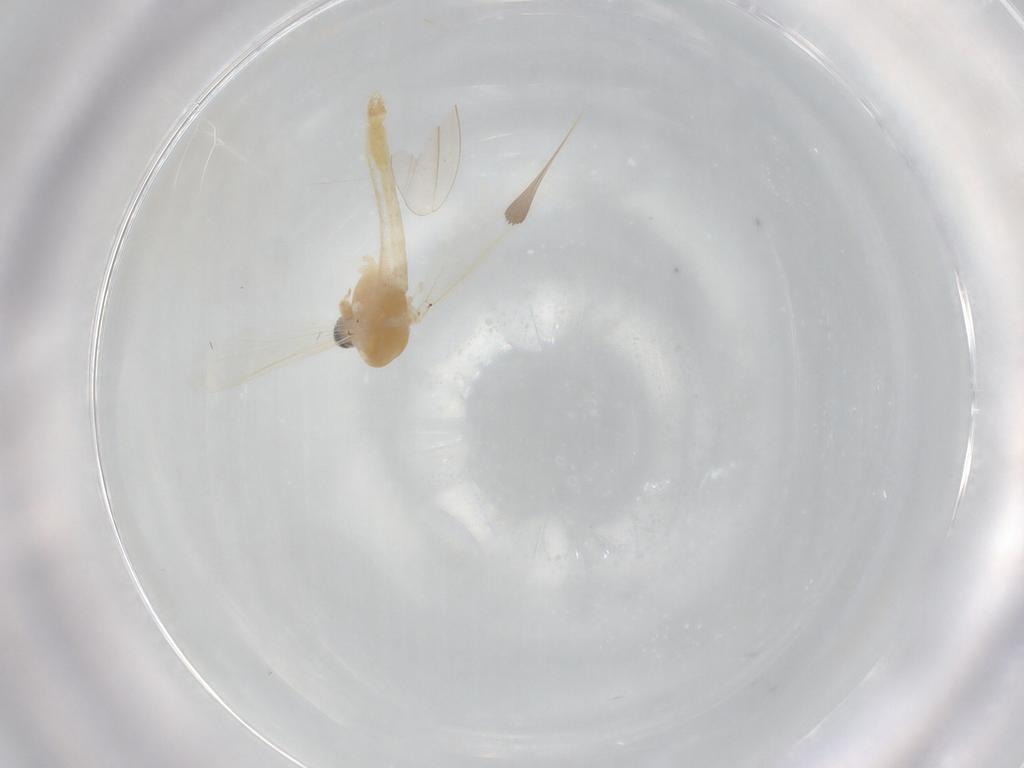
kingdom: Animalia
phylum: Arthropoda
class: Insecta
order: Diptera
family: Chironomidae
